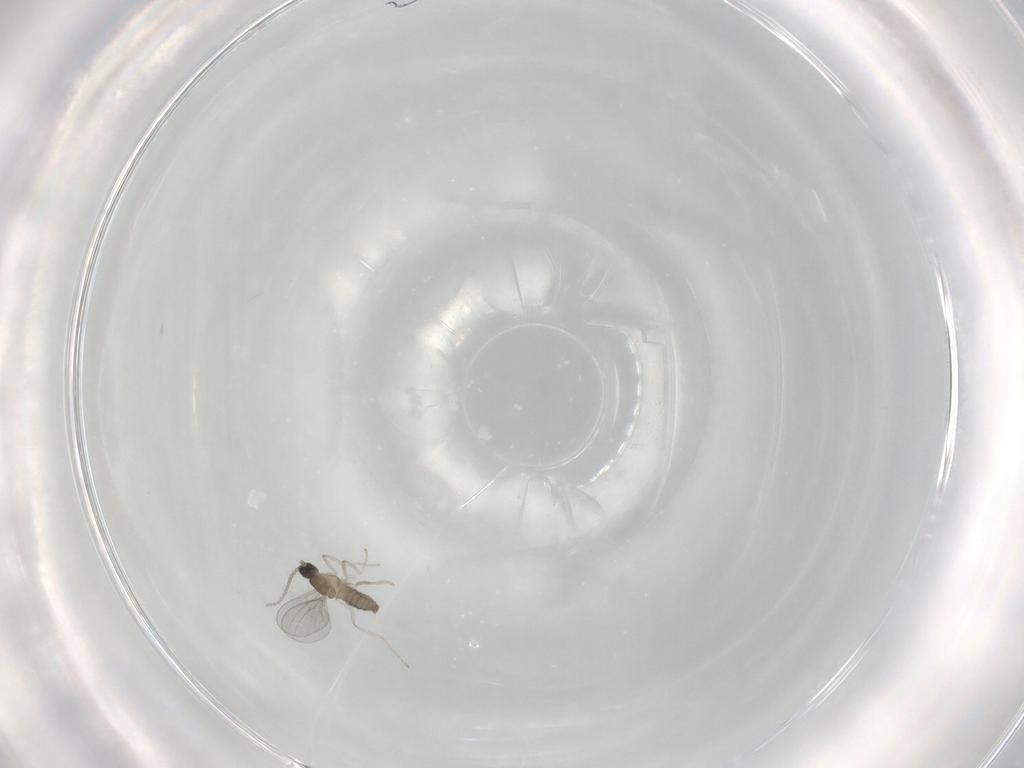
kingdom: Animalia
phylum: Arthropoda
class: Insecta
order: Diptera
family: Cecidomyiidae
